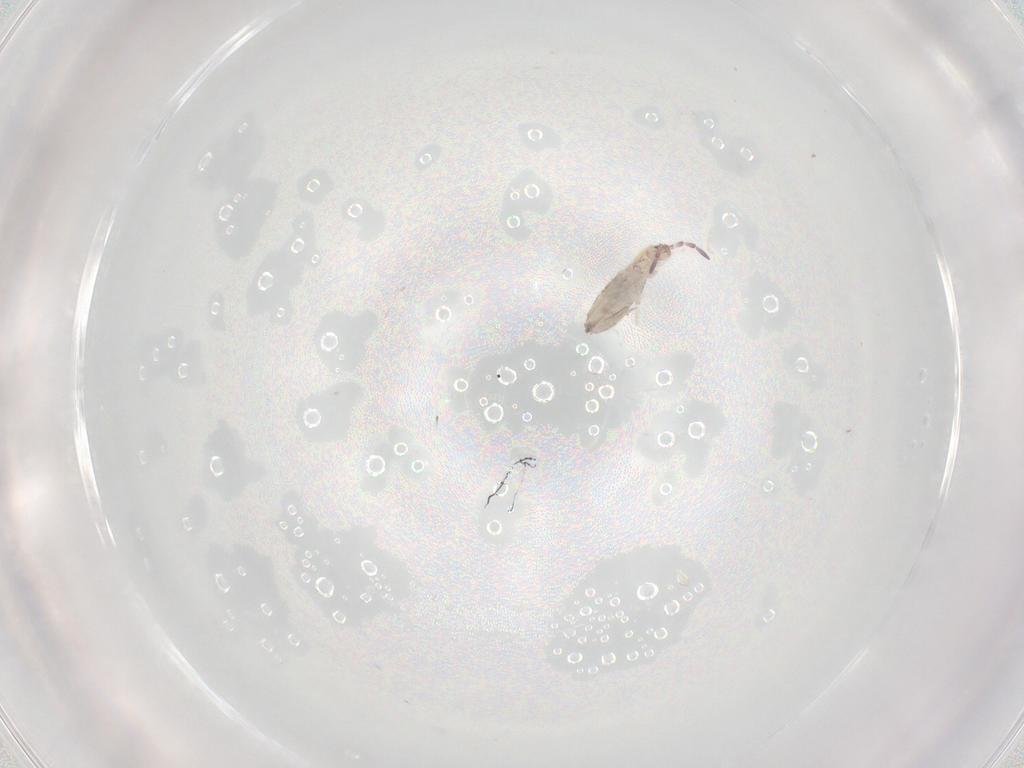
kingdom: Animalia
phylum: Arthropoda
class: Collembola
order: Entomobryomorpha
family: Entomobryidae
